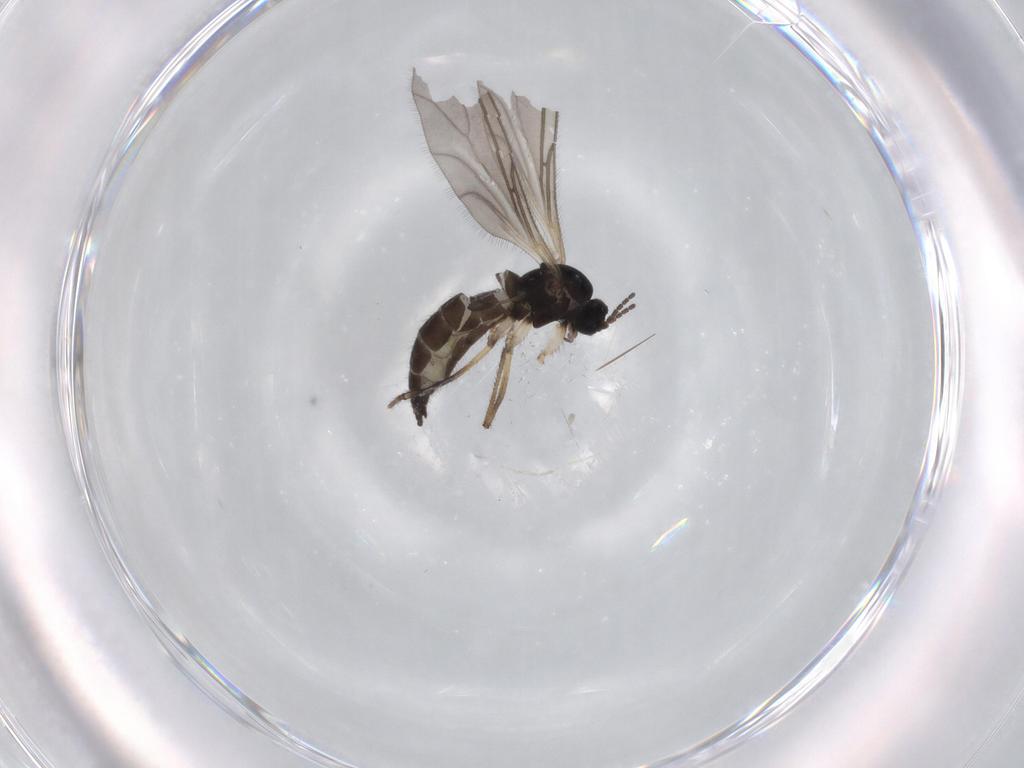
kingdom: Animalia
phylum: Arthropoda
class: Insecta
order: Diptera
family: Sciaridae
